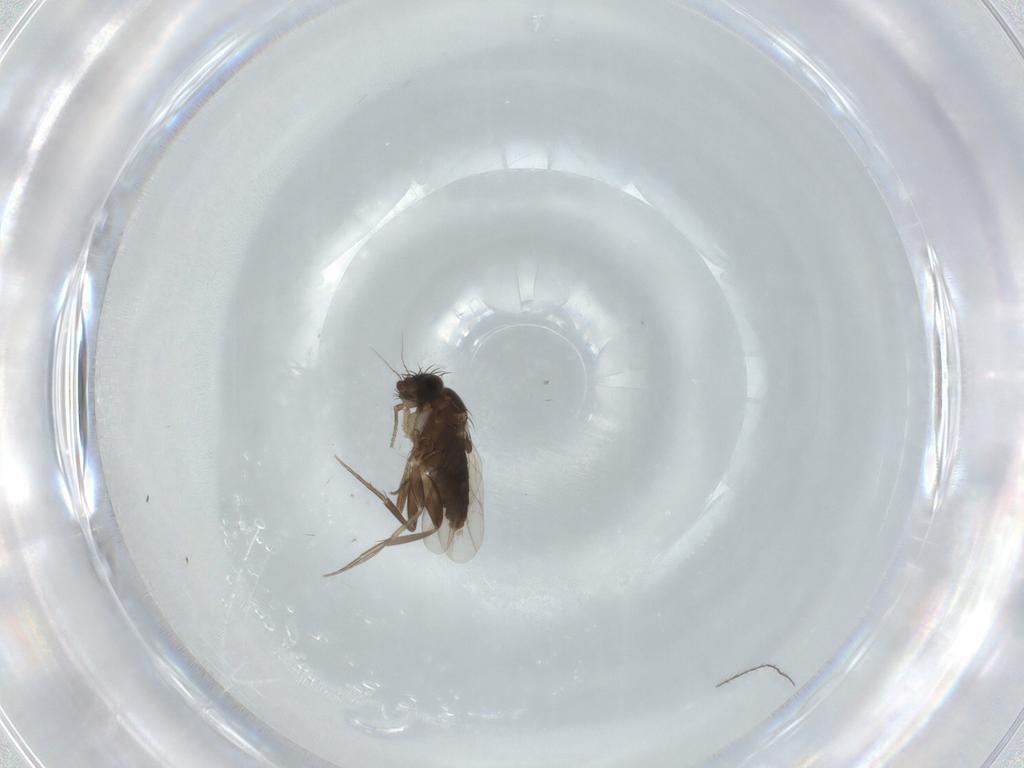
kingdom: Animalia
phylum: Arthropoda
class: Insecta
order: Diptera
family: Phoridae
